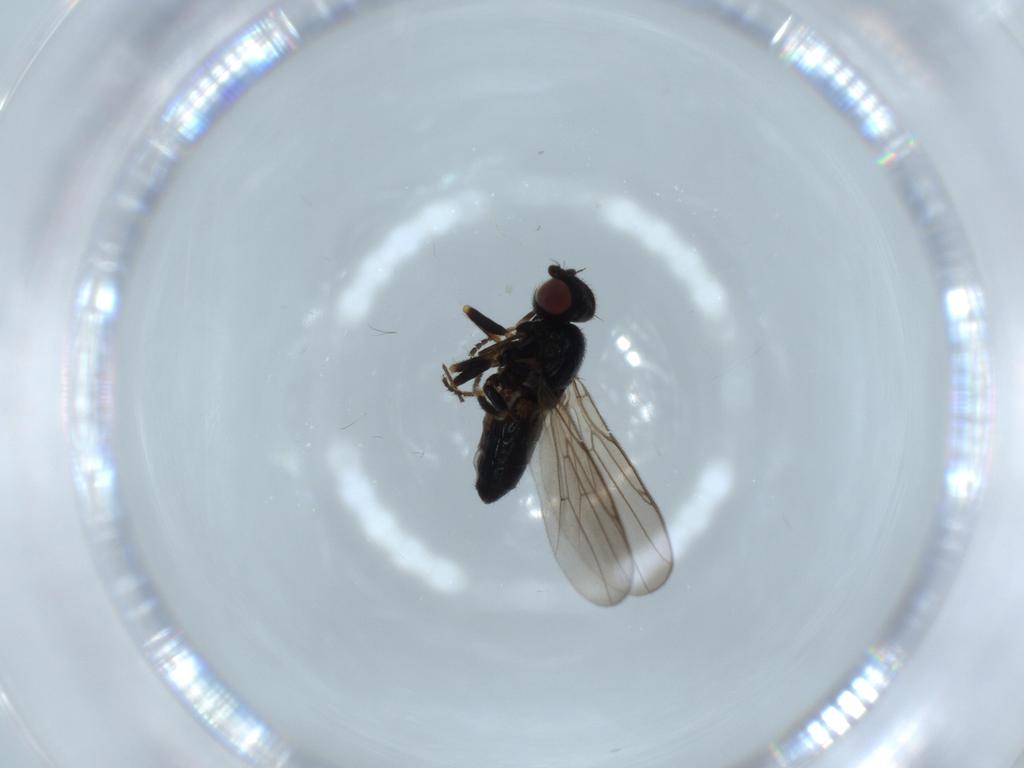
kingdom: Animalia
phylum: Arthropoda
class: Insecta
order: Diptera
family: Chloropidae
